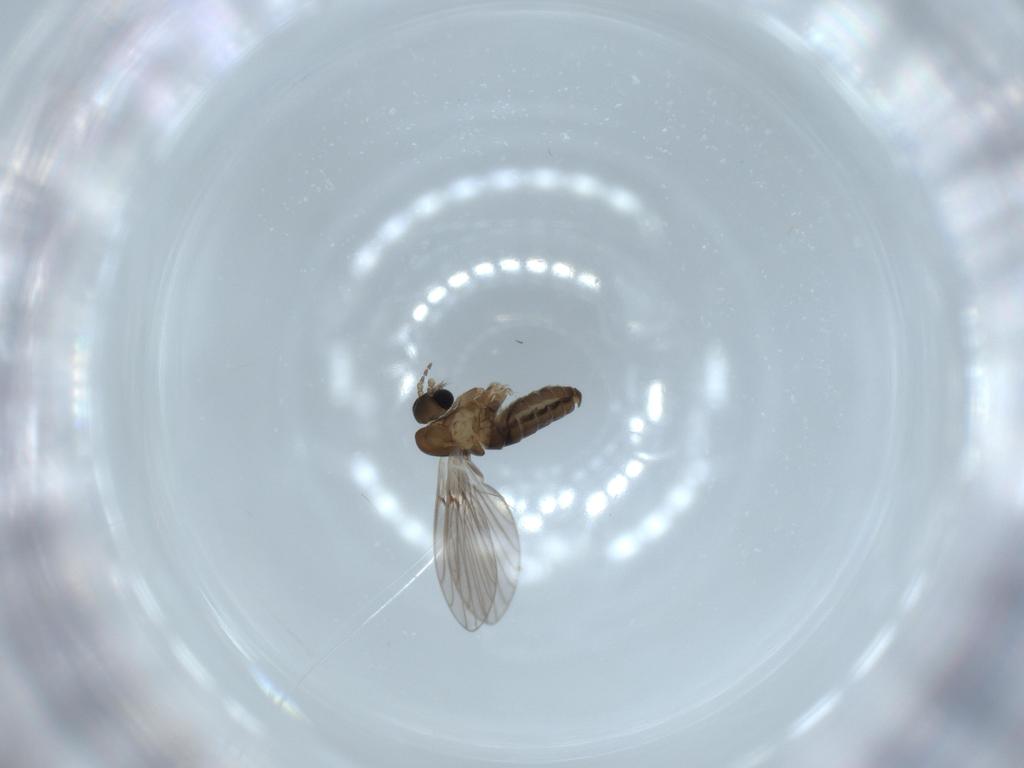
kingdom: Animalia
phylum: Arthropoda
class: Insecta
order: Diptera
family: Psychodidae
